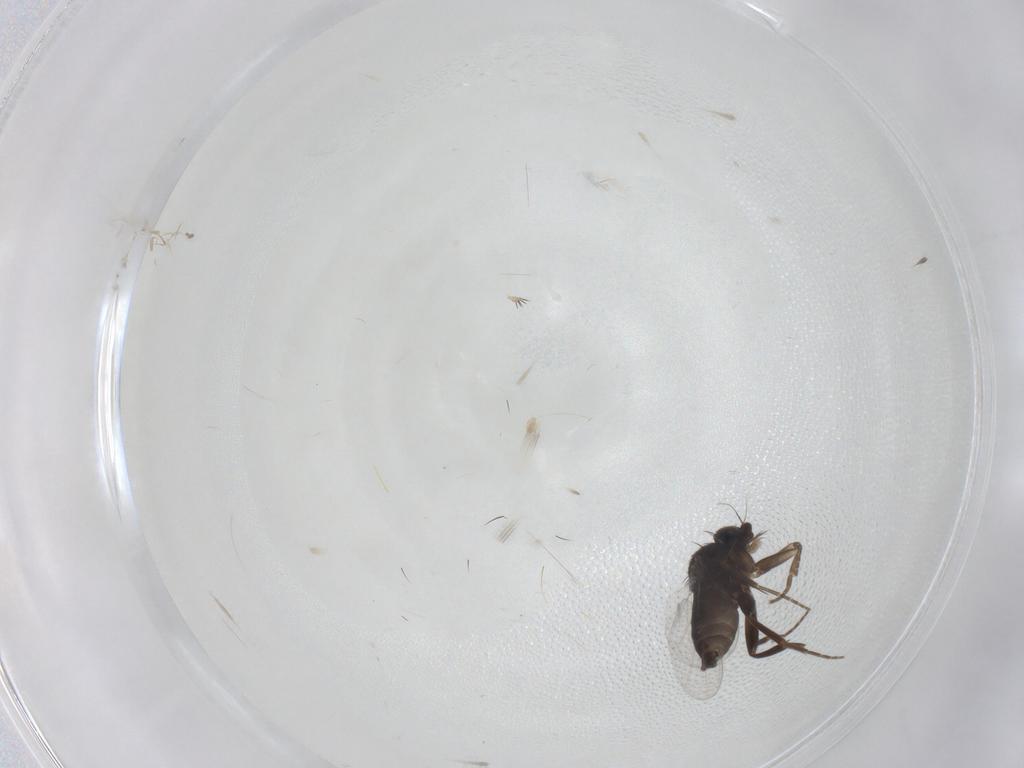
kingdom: Animalia
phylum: Arthropoda
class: Insecta
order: Diptera
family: Phoridae
